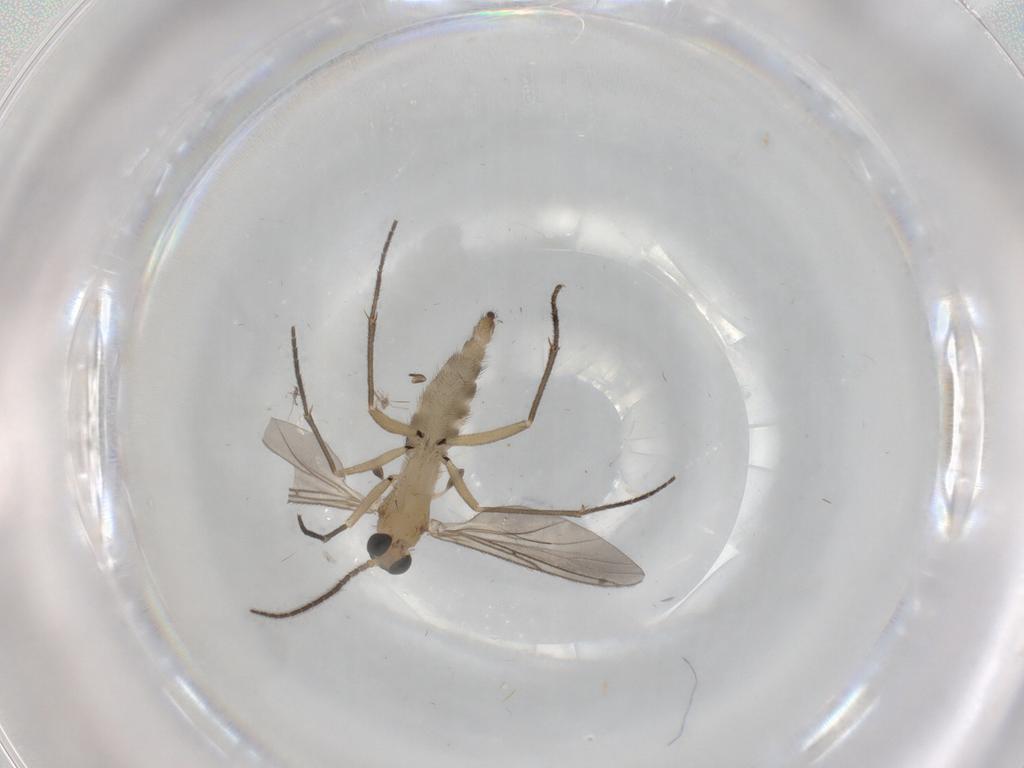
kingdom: Animalia
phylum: Arthropoda
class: Insecta
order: Diptera
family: Sciaridae
